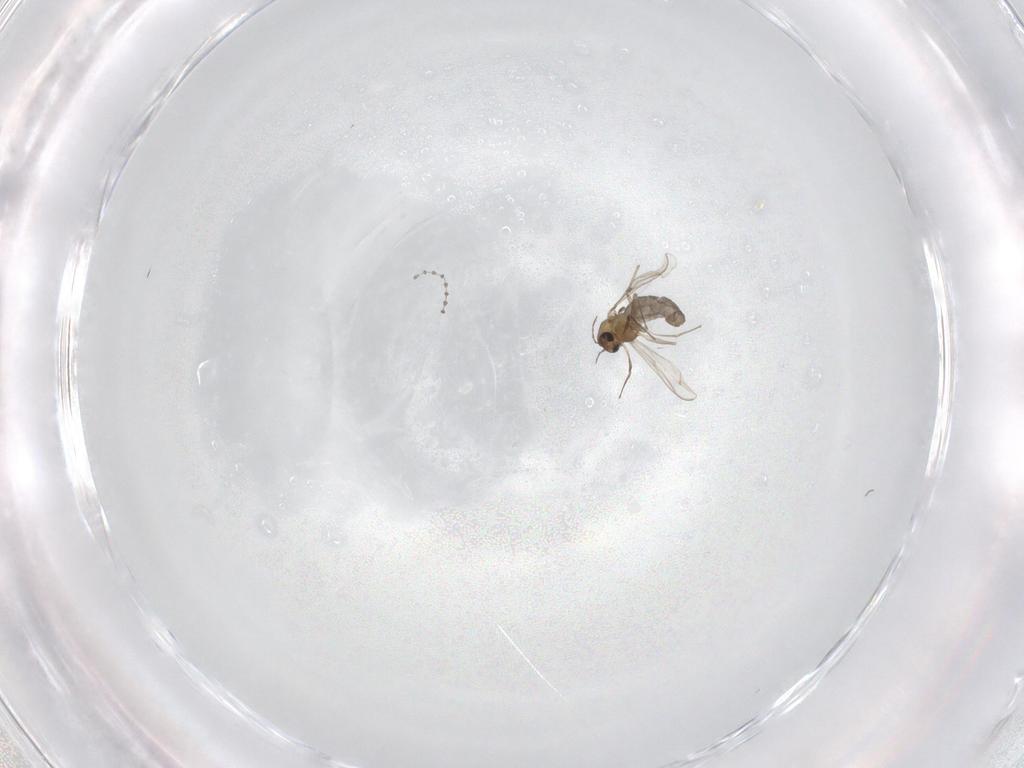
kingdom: Animalia
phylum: Arthropoda
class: Insecta
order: Diptera
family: Chironomidae
